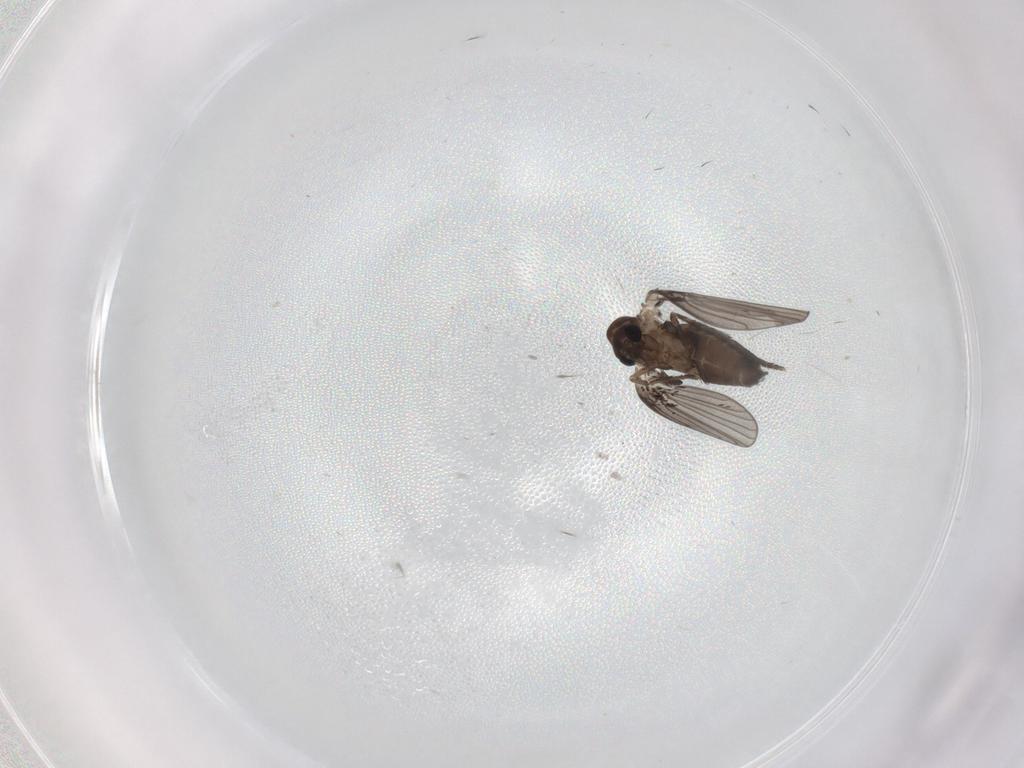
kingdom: Animalia
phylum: Arthropoda
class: Insecta
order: Diptera
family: Psychodidae
